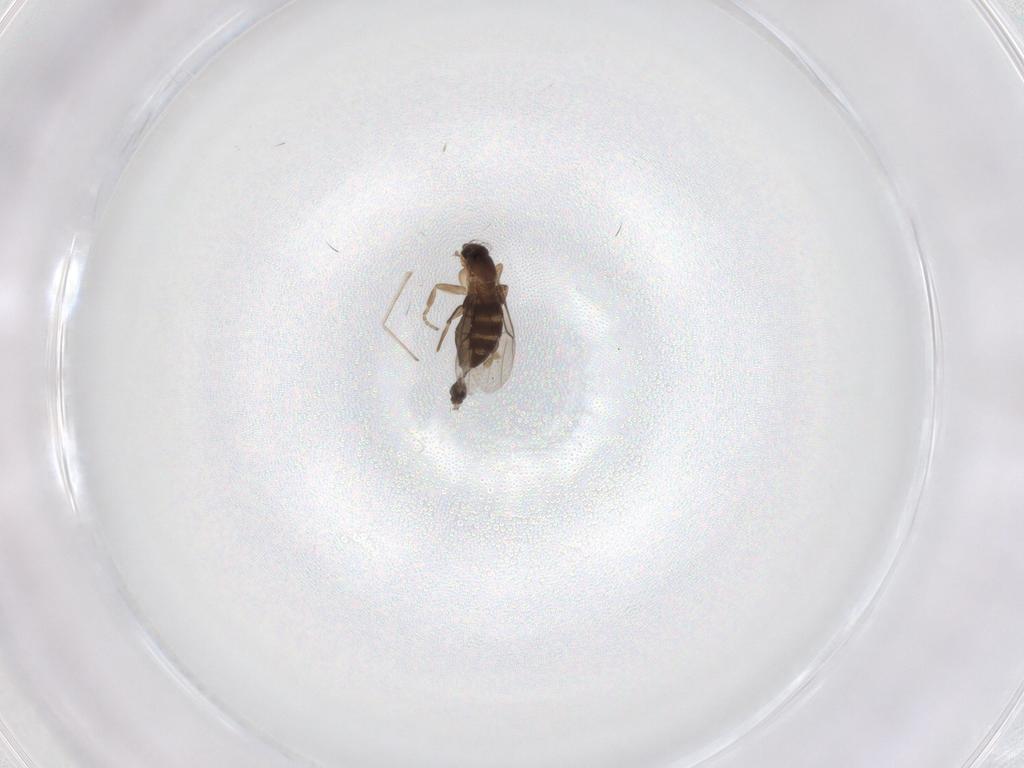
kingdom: Animalia
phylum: Arthropoda
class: Insecta
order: Diptera
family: Phoridae
